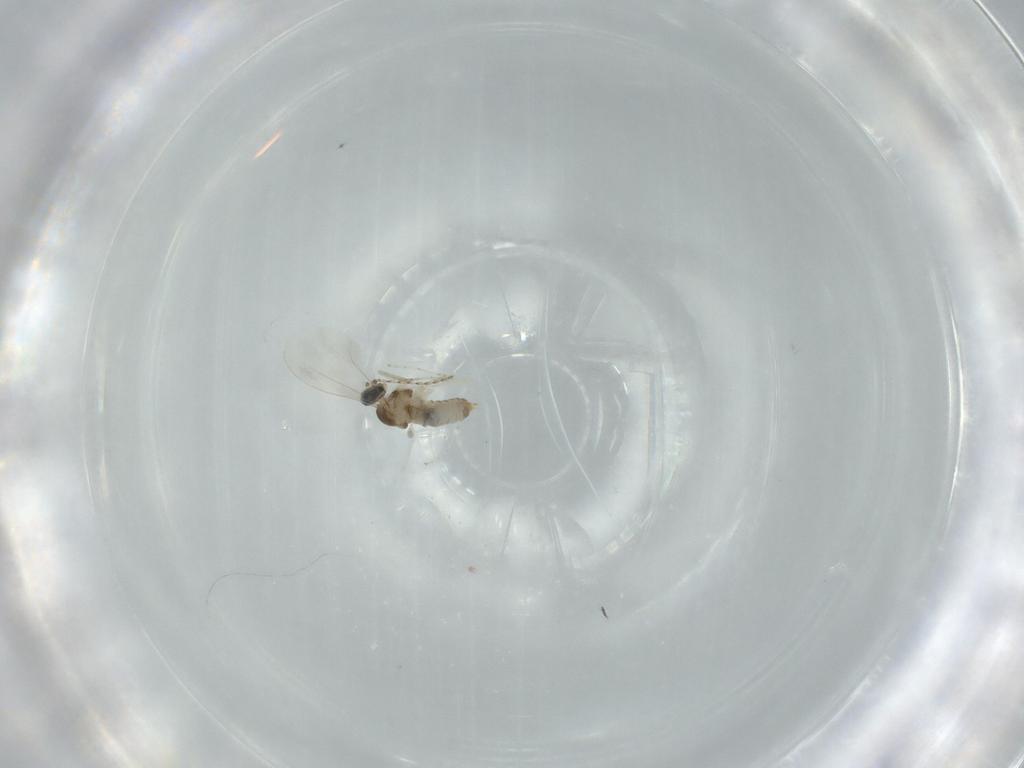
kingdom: Animalia
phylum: Arthropoda
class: Insecta
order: Diptera
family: Cecidomyiidae
